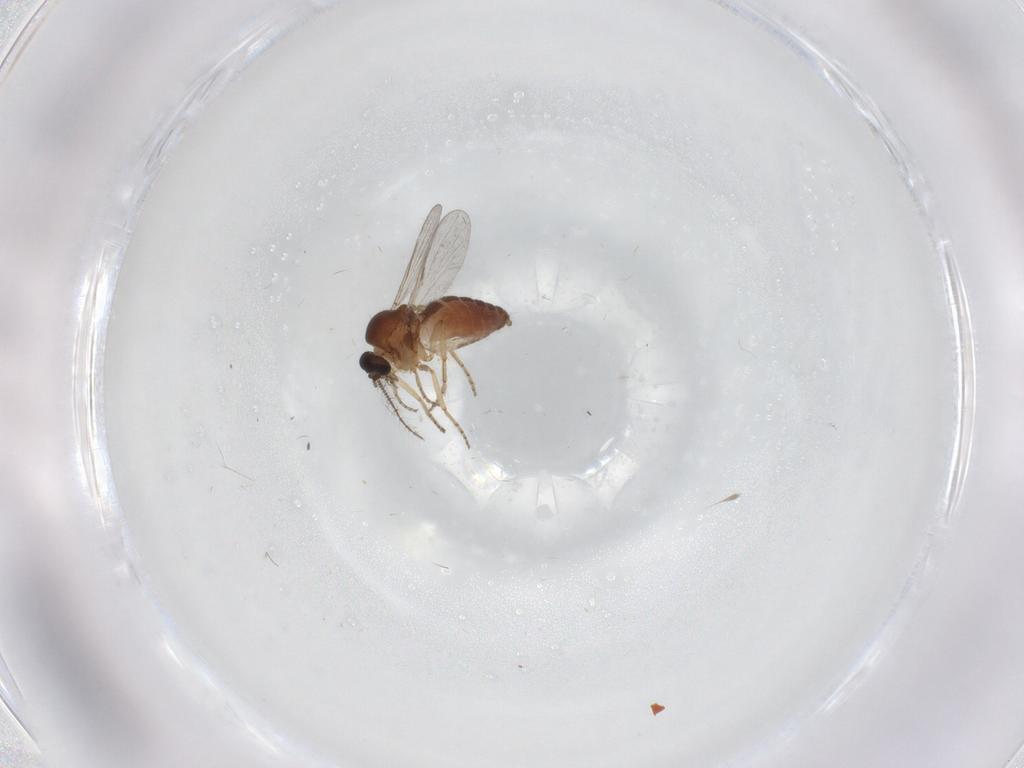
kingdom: Animalia
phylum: Arthropoda
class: Insecta
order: Diptera
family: Ceratopogonidae
